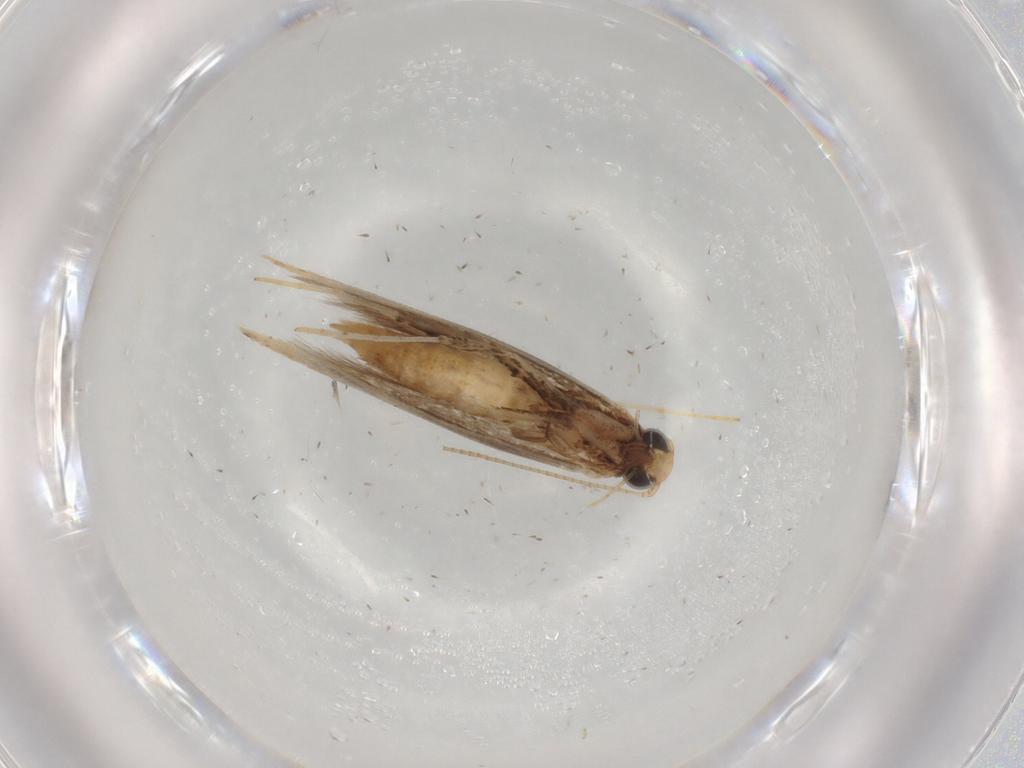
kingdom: Animalia
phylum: Arthropoda
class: Insecta
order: Lepidoptera
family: Gracillariidae
